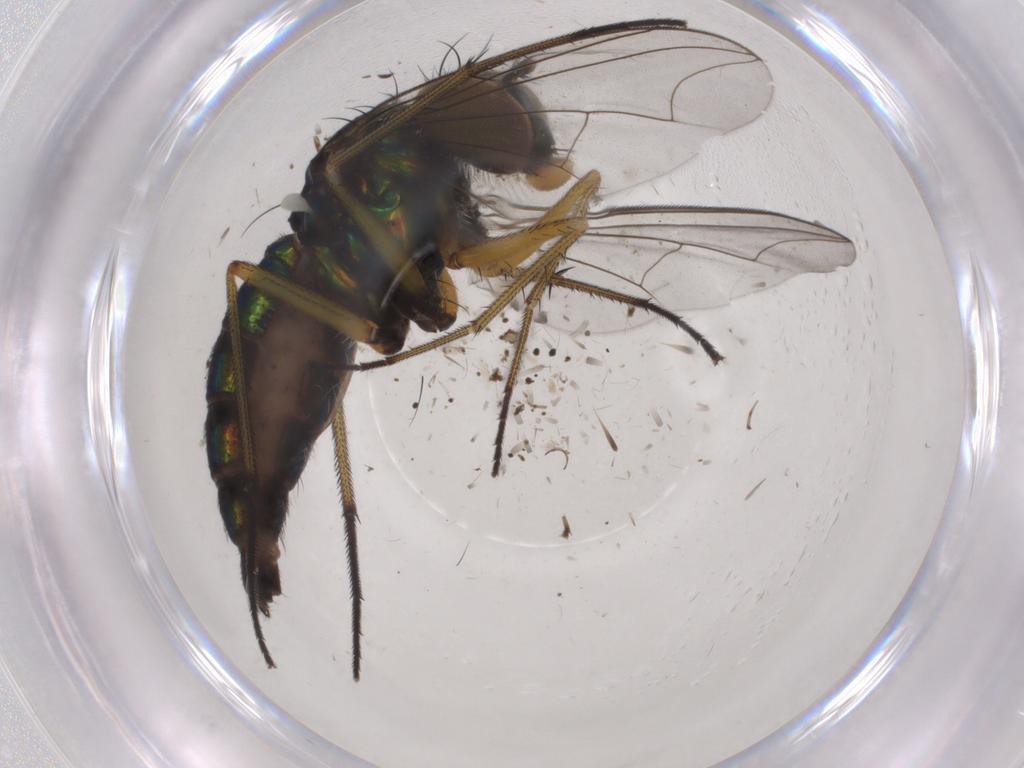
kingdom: Animalia
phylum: Arthropoda
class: Insecta
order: Diptera
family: Dolichopodidae
